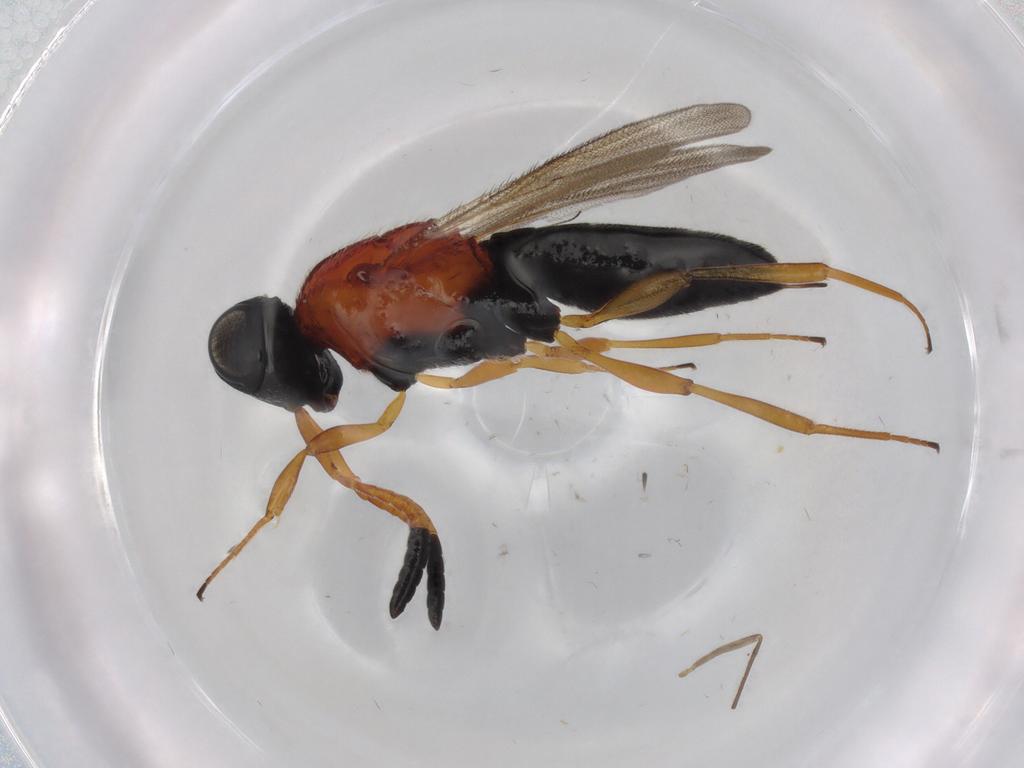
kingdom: Animalia
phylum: Arthropoda
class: Insecta
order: Hymenoptera
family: Scelionidae
